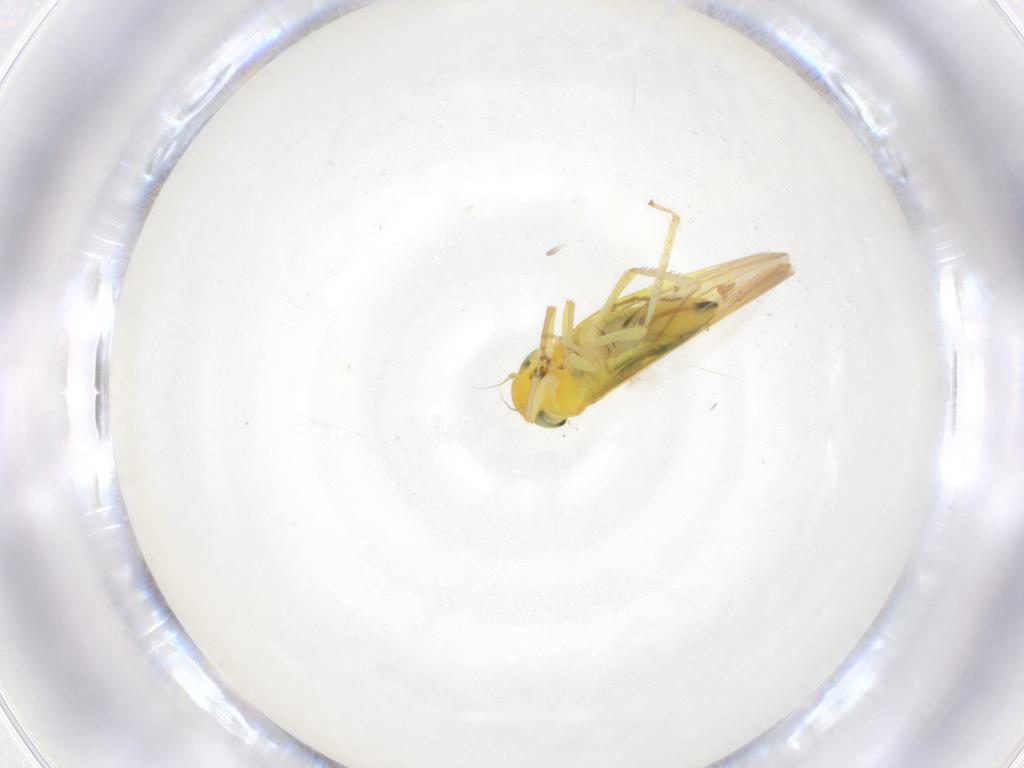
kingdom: Animalia
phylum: Arthropoda
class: Insecta
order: Hemiptera
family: Cicadellidae
